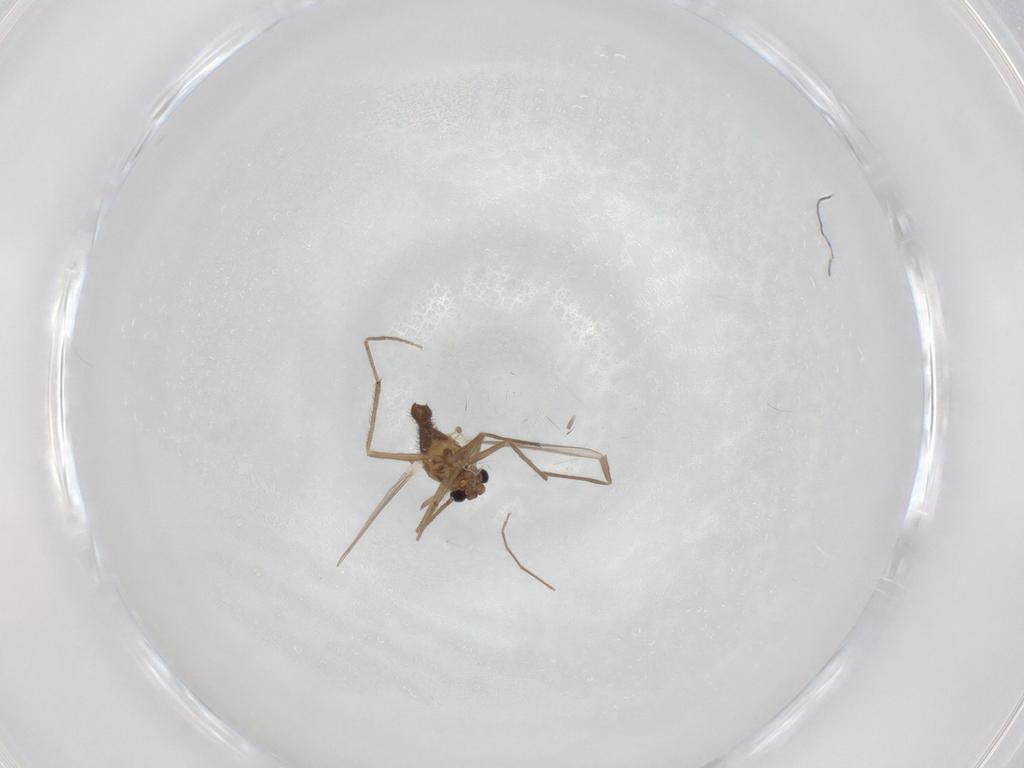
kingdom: Animalia
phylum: Arthropoda
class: Insecta
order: Diptera
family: Chironomidae
